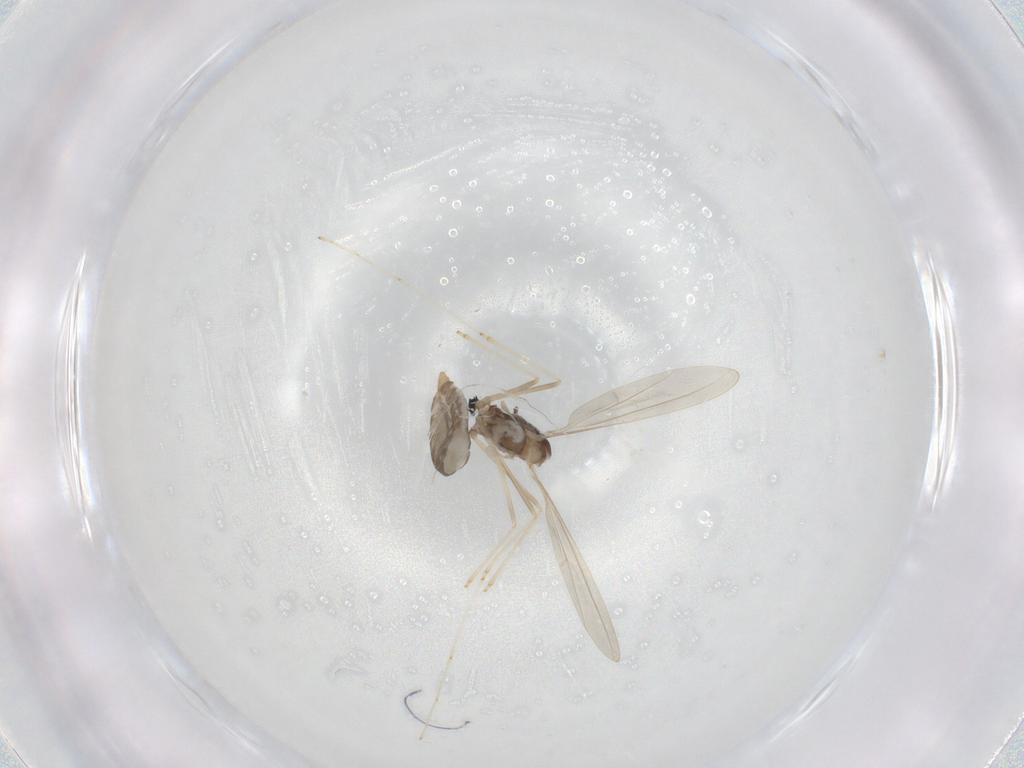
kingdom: Animalia
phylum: Arthropoda
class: Insecta
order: Diptera
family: Cecidomyiidae
